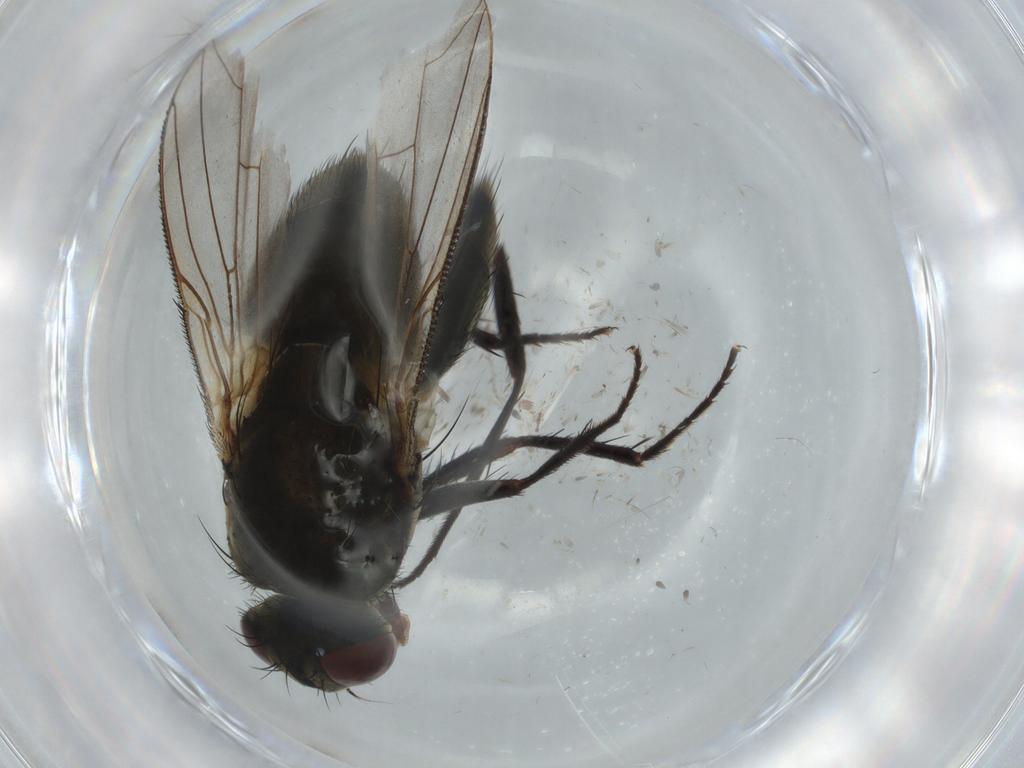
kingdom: Animalia
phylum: Arthropoda
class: Insecta
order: Diptera
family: Cecidomyiidae
